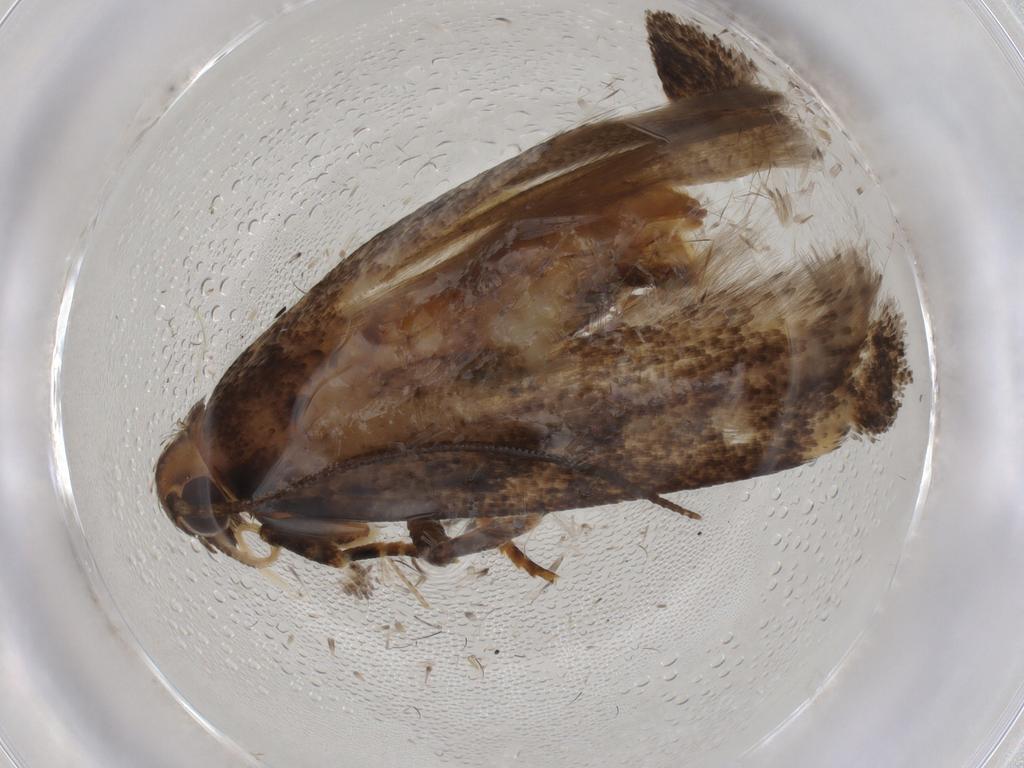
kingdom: Animalia
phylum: Arthropoda
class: Insecta
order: Lepidoptera
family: Gelechiidae
